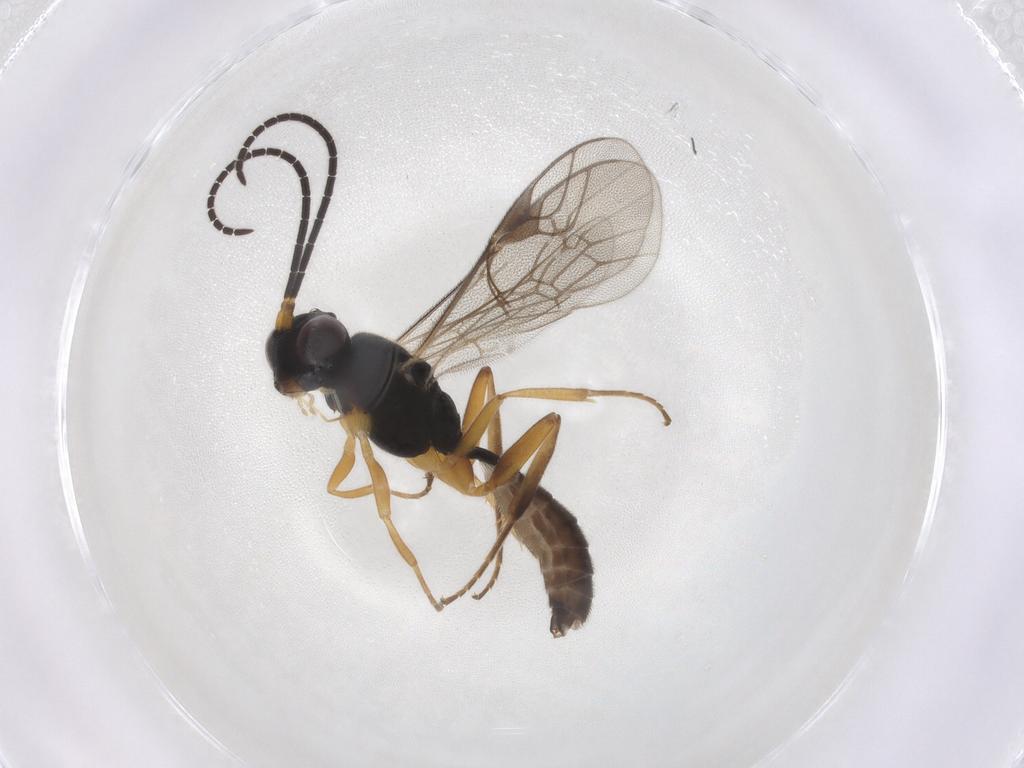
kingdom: Animalia
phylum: Arthropoda
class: Insecta
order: Hymenoptera
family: Ichneumonidae
